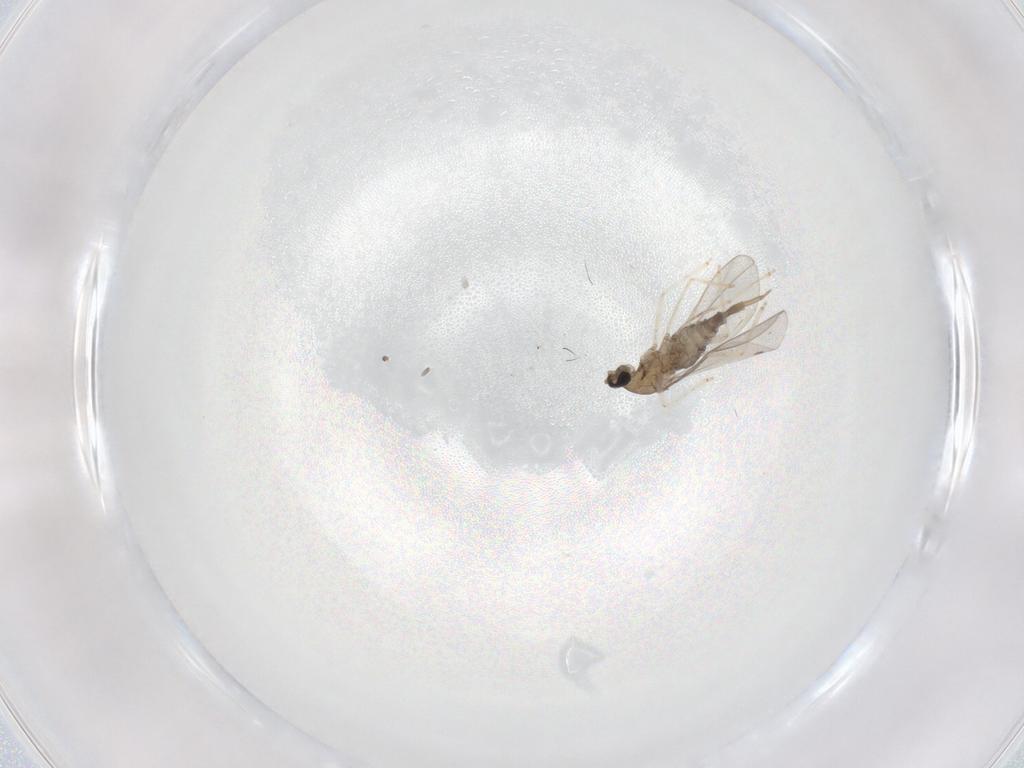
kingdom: Animalia
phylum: Arthropoda
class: Insecta
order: Diptera
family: Cecidomyiidae
